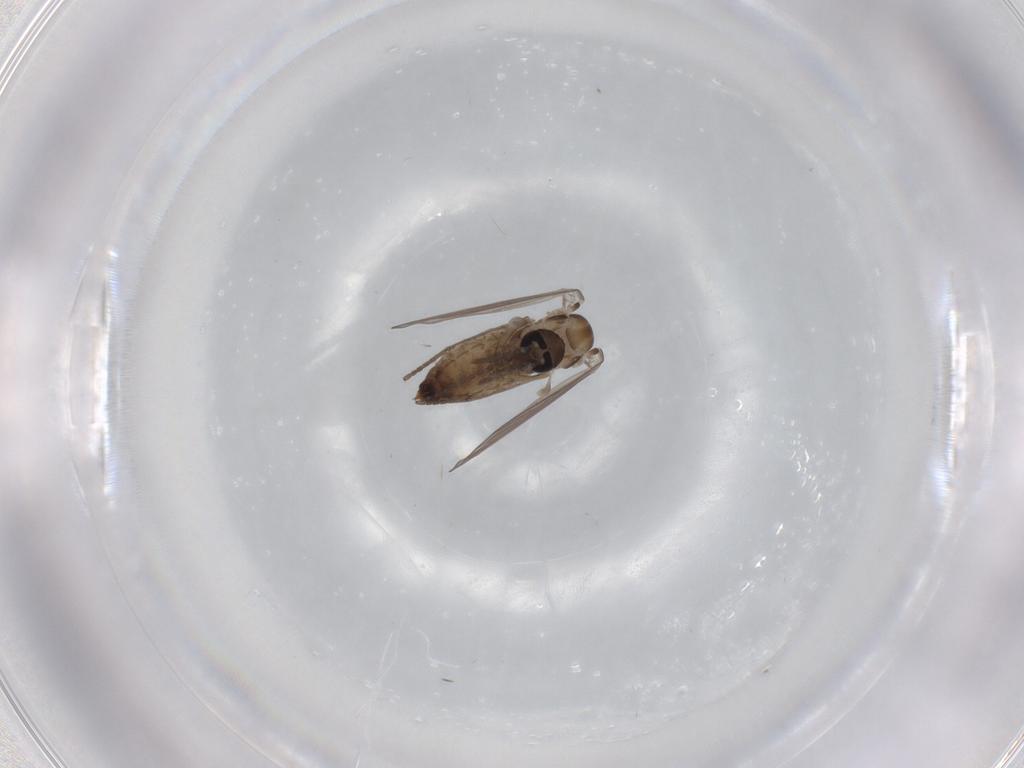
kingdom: Animalia
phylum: Arthropoda
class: Insecta
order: Diptera
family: Psychodidae
